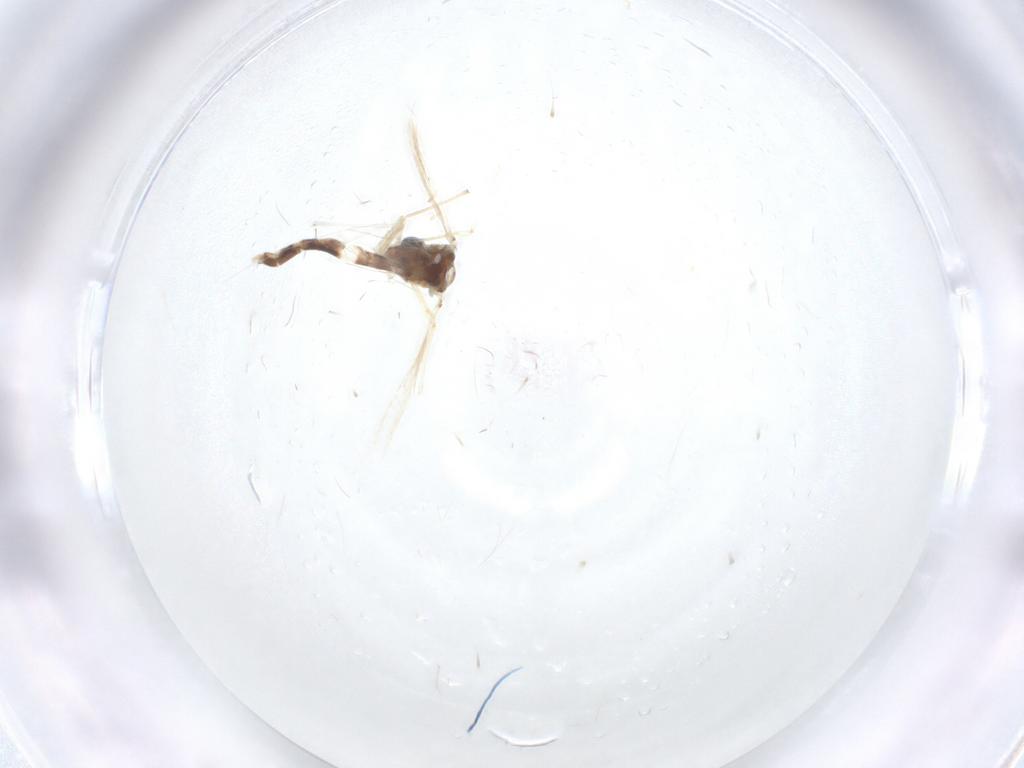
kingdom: Animalia
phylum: Arthropoda
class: Insecta
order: Diptera
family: Chironomidae
